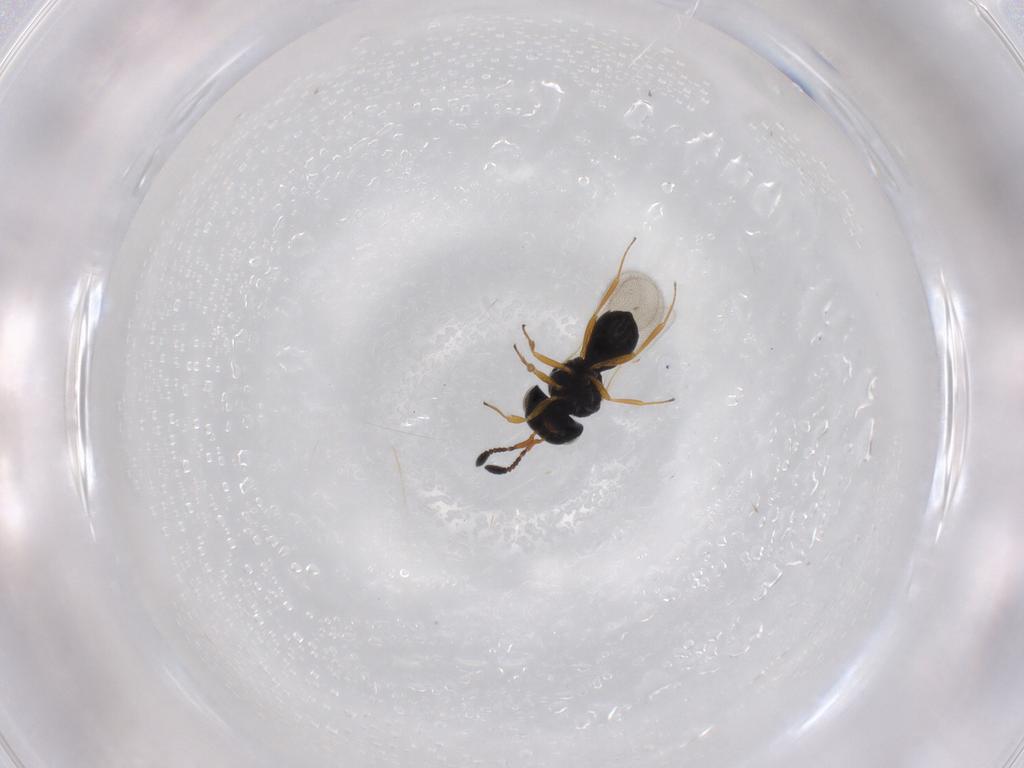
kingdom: Animalia
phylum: Arthropoda
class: Insecta
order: Hymenoptera
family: Scelionidae
